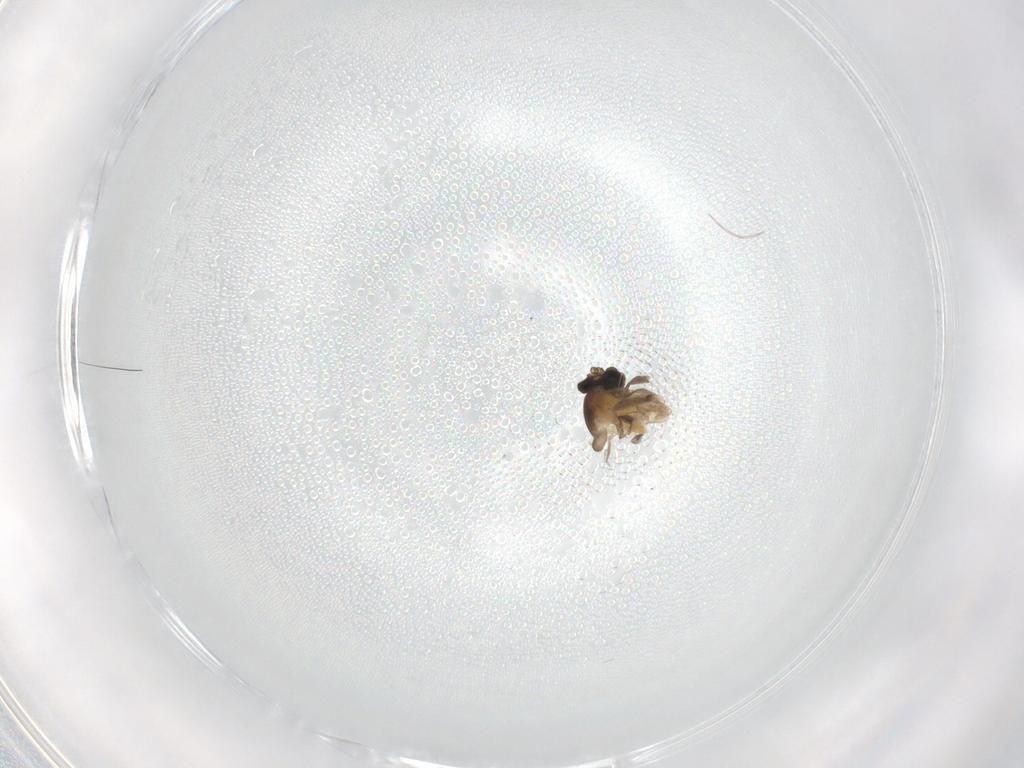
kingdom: Animalia
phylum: Arthropoda
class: Insecta
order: Diptera
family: Cecidomyiidae
